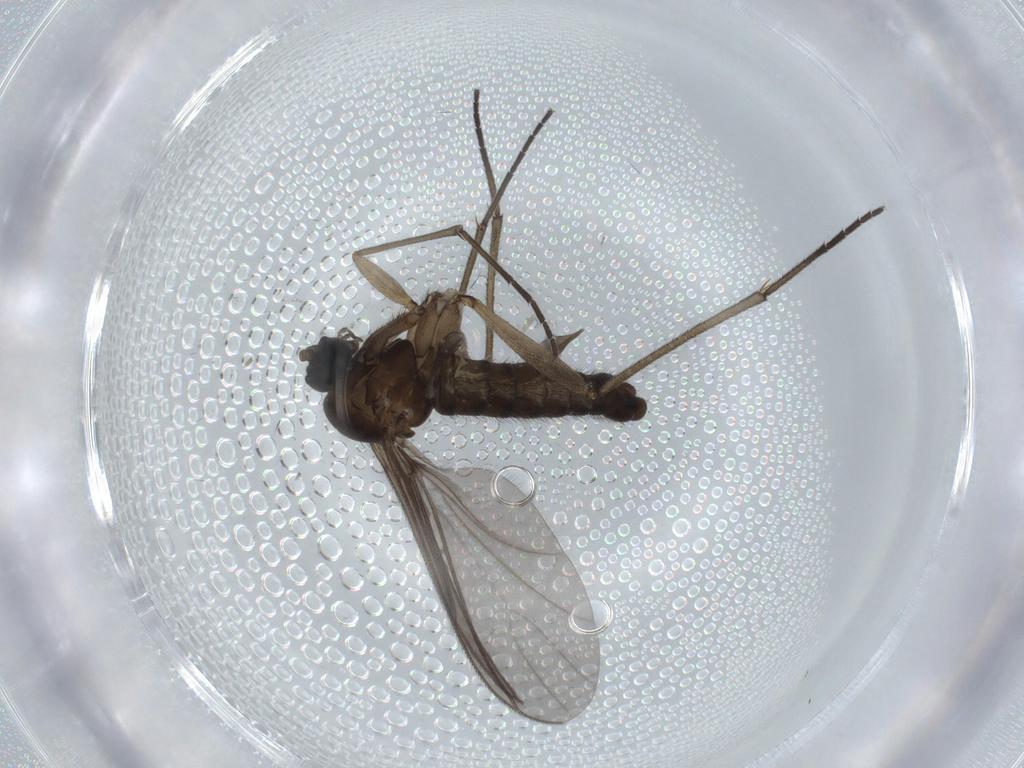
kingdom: Animalia
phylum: Arthropoda
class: Insecta
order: Diptera
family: Sciaridae
